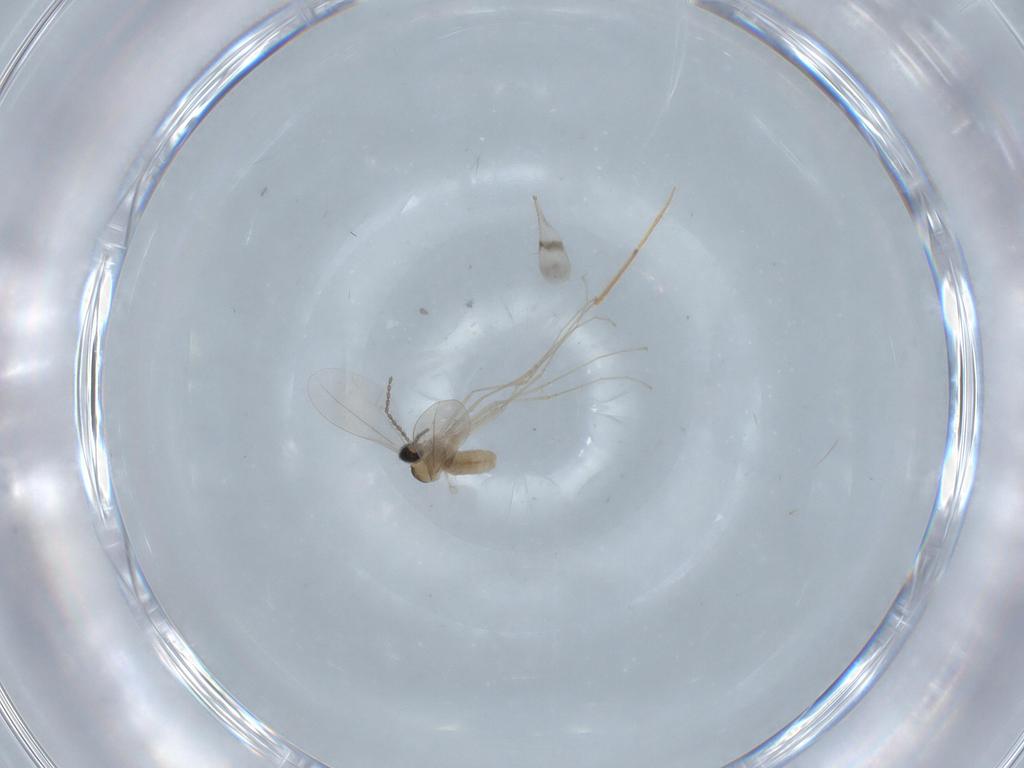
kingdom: Animalia
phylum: Arthropoda
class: Insecta
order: Diptera
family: Cecidomyiidae
